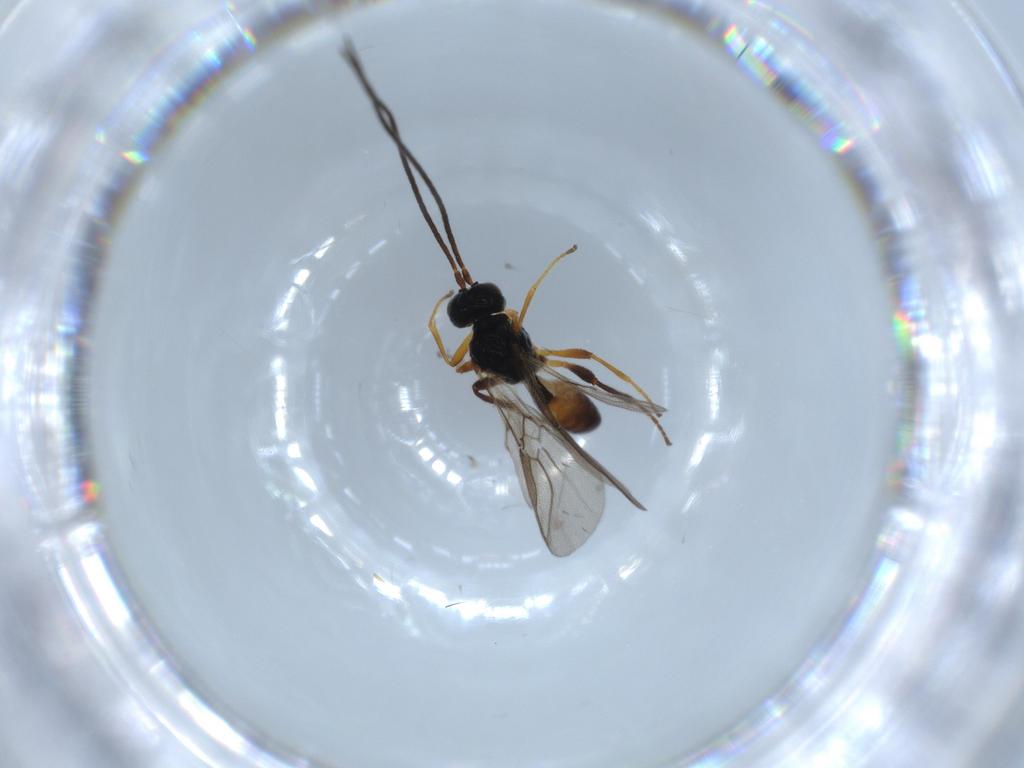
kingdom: Animalia
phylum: Arthropoda
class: Insecta
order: Hymenoptera
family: Braconidae
